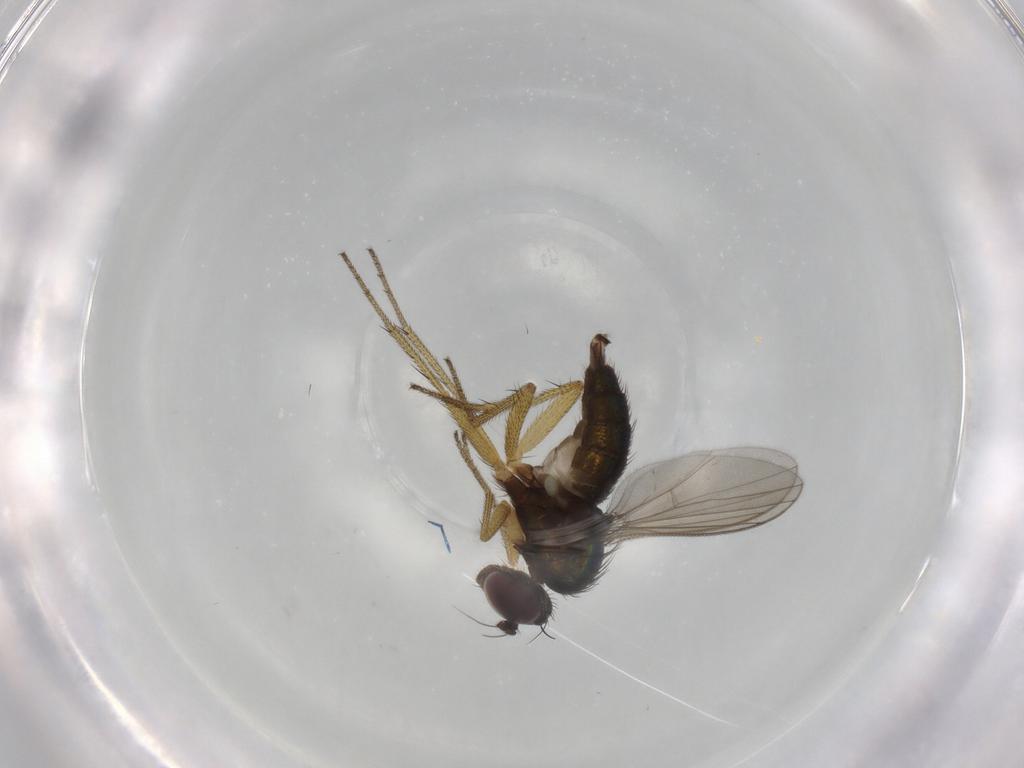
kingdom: Animalia
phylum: Arthropoda
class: Insecta
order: Diptera
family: Dolichopodidae
